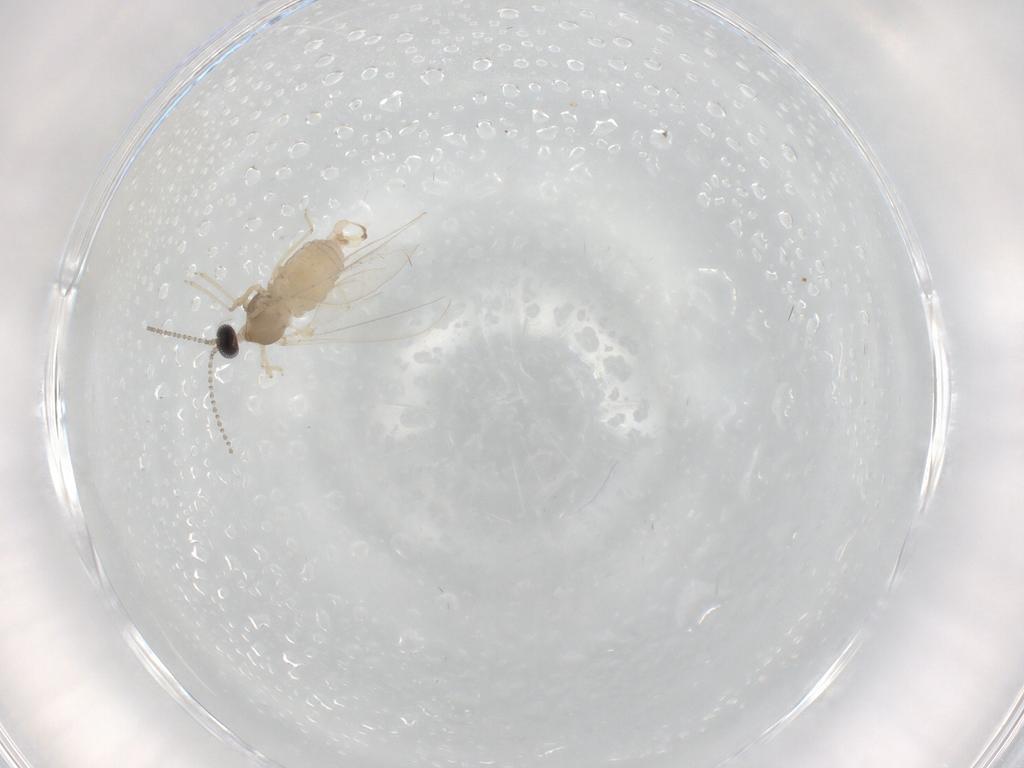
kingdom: Animalia
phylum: Arthropoda
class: Insecta
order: Diptera
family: Cecidomyiidae
